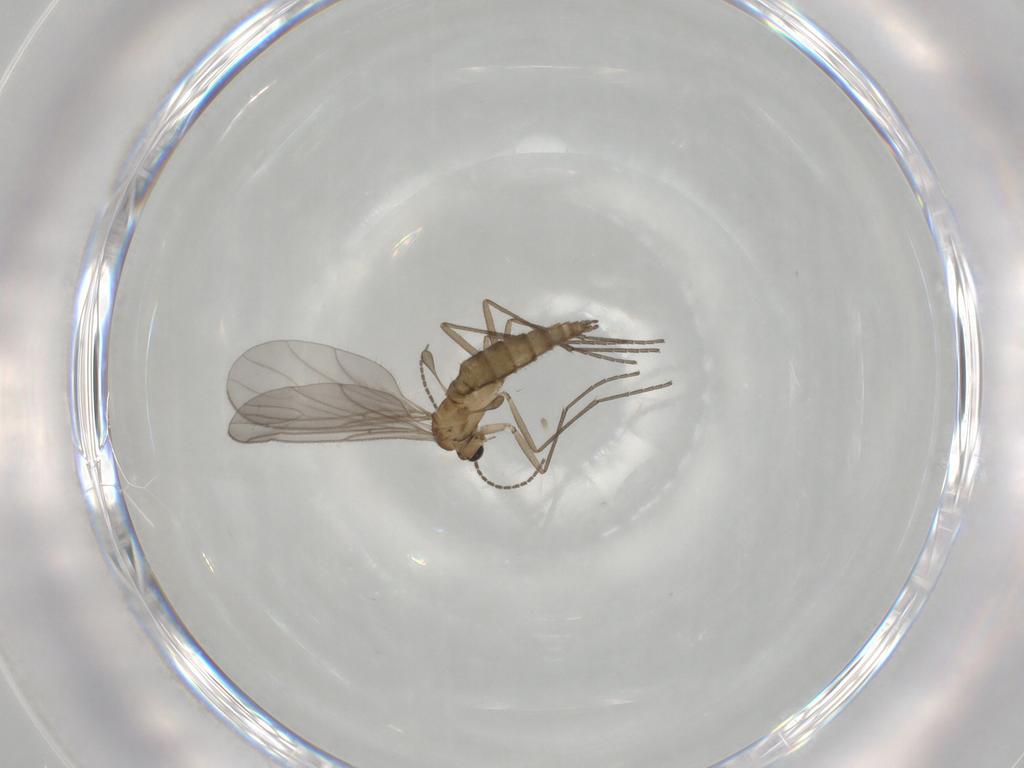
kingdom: Animalia
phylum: Arthropoda
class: Insecta
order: Diptera
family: Sciaridae
